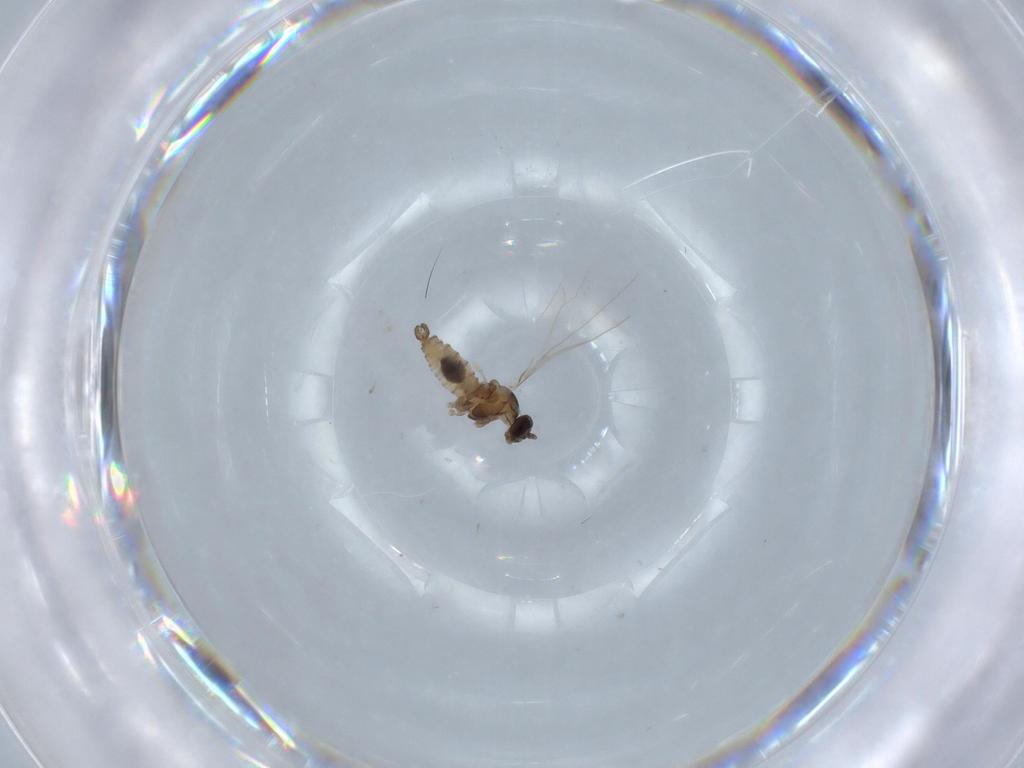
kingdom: Animalia
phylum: Arthropoda
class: Insecta
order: Diptera
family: Cecidomyiidae
